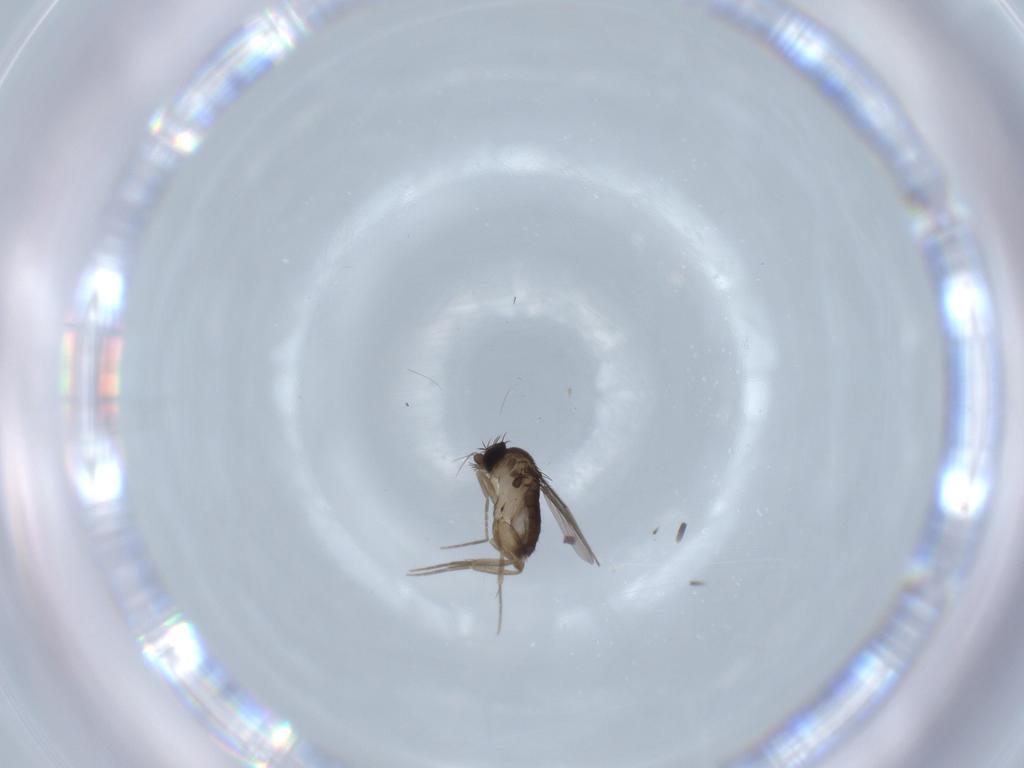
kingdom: Animalia
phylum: Arthropoda
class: Insecta
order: Diptera
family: Phoridae
